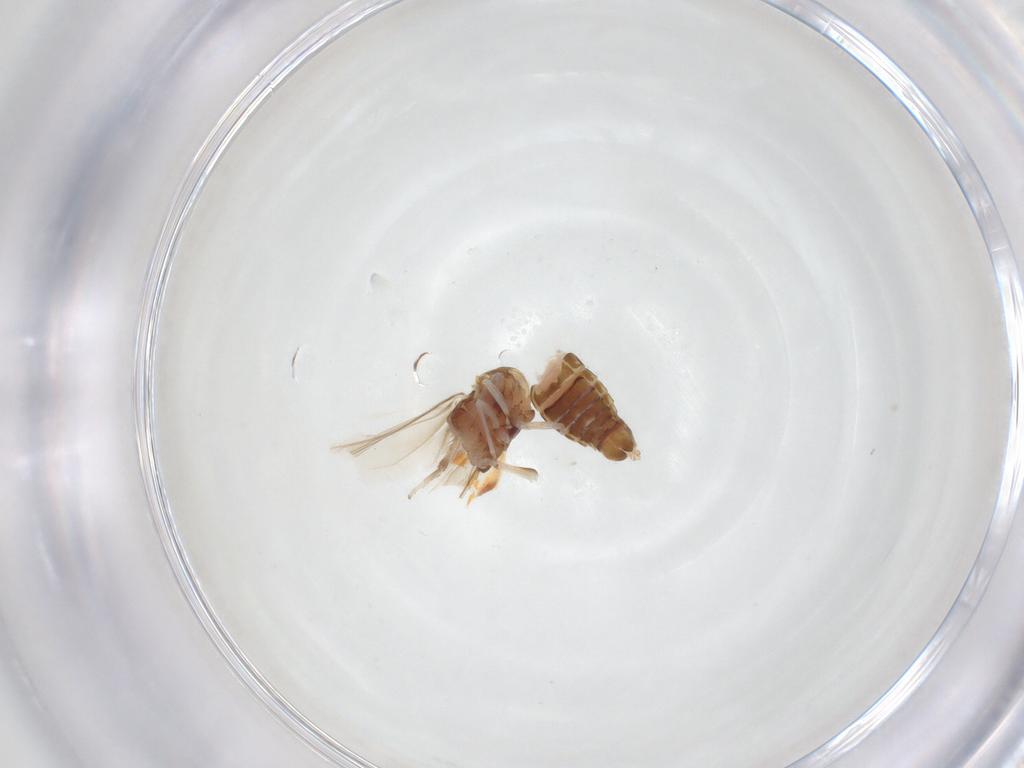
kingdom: Animalia
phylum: Arthropoda
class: Insecta
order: Hemiptera
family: Cicadellidae
